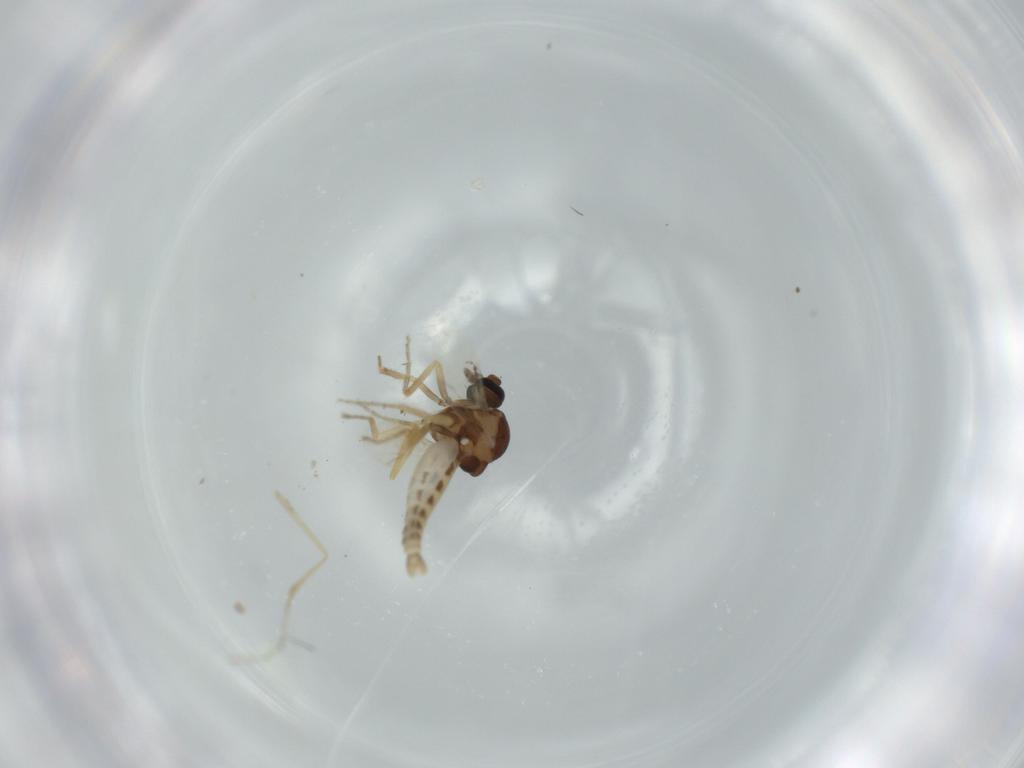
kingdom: Animalia
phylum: Arthropoda
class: Insecta
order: Diptera
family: Ceratopogonidae
